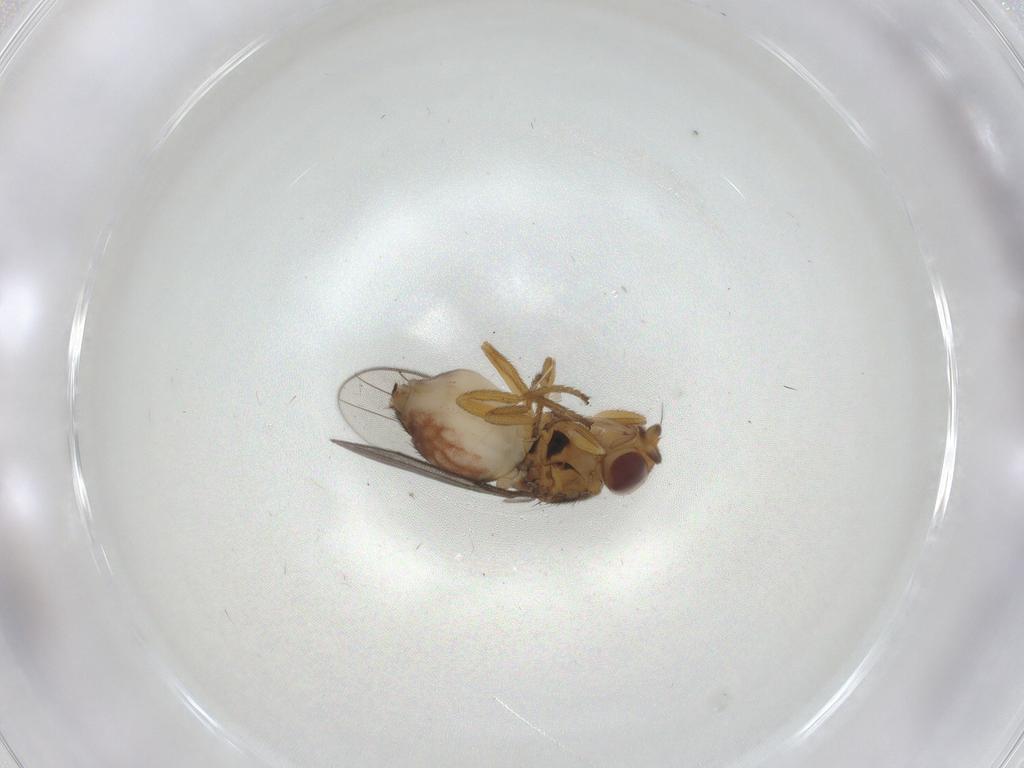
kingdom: Animalia
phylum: Arthropoda
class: Insecta
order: Diptera
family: Chloropidae
